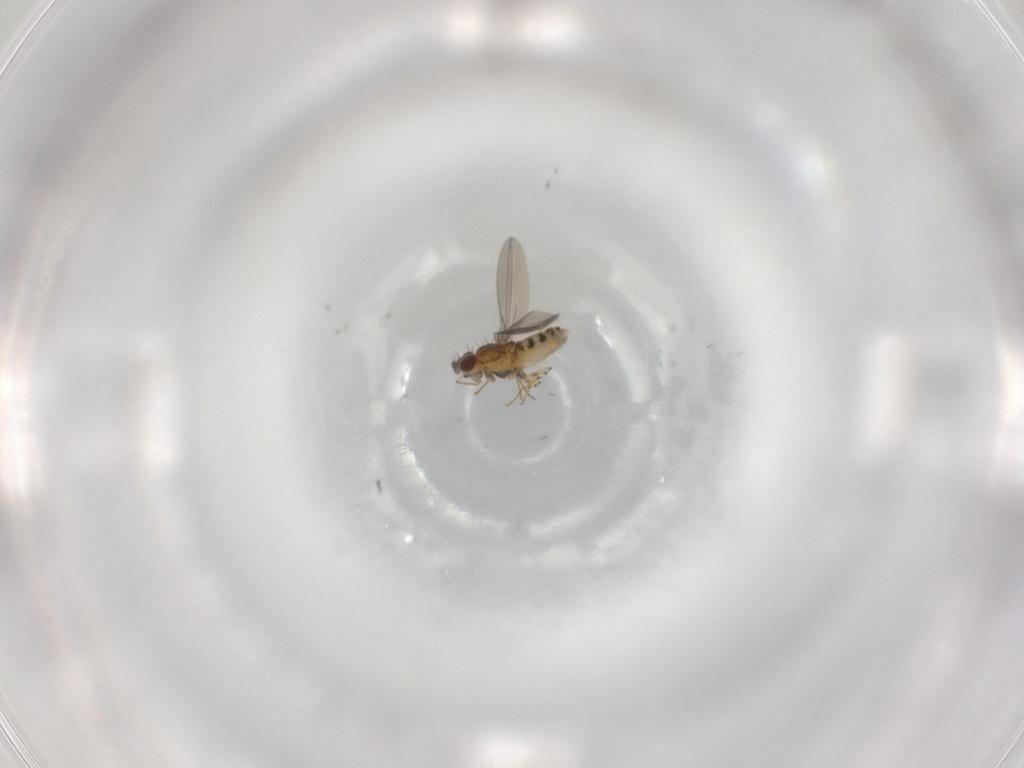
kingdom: Animalia
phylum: Arthropoda
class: Insecta
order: Diptera
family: Asteiidae
